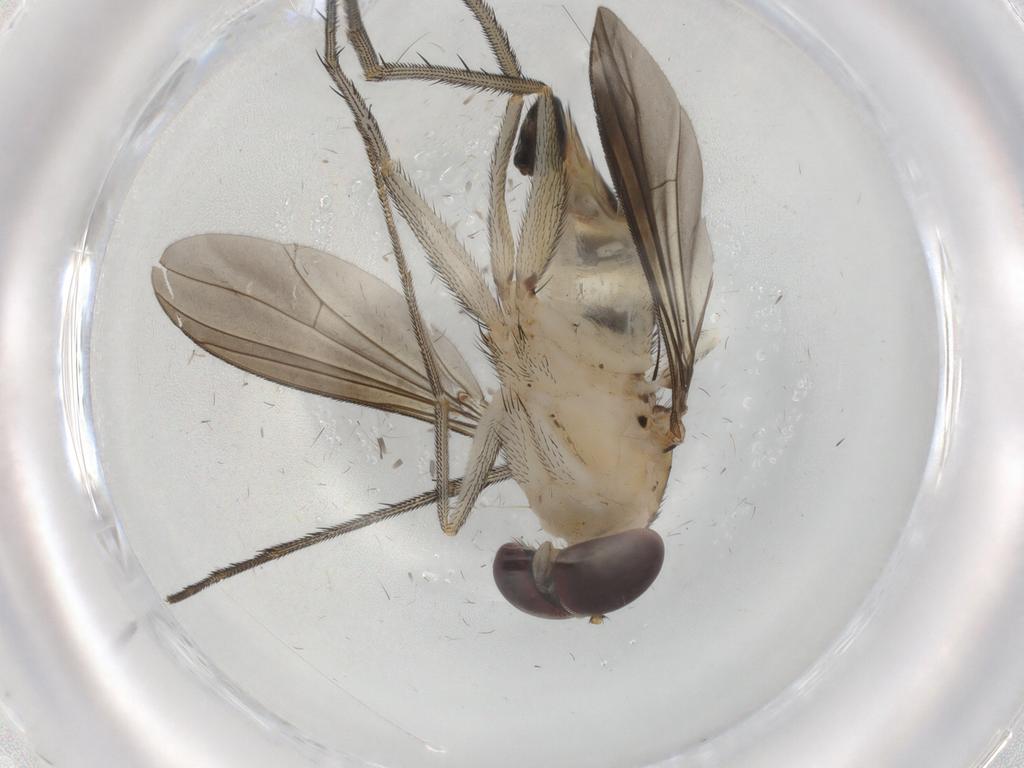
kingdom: Animalia
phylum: Arthropoda
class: Insecta
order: Diptera
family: Dolichopodidae
